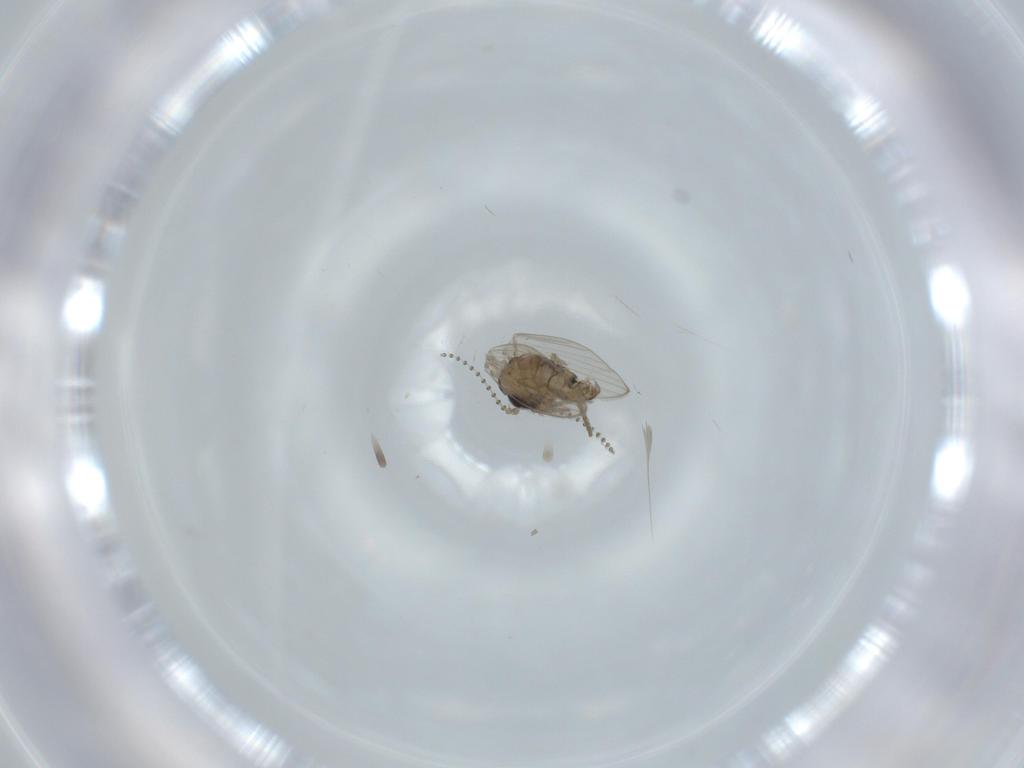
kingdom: Animalia
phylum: Arthropoda
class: Insecta
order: Diptera
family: Psychodidae
